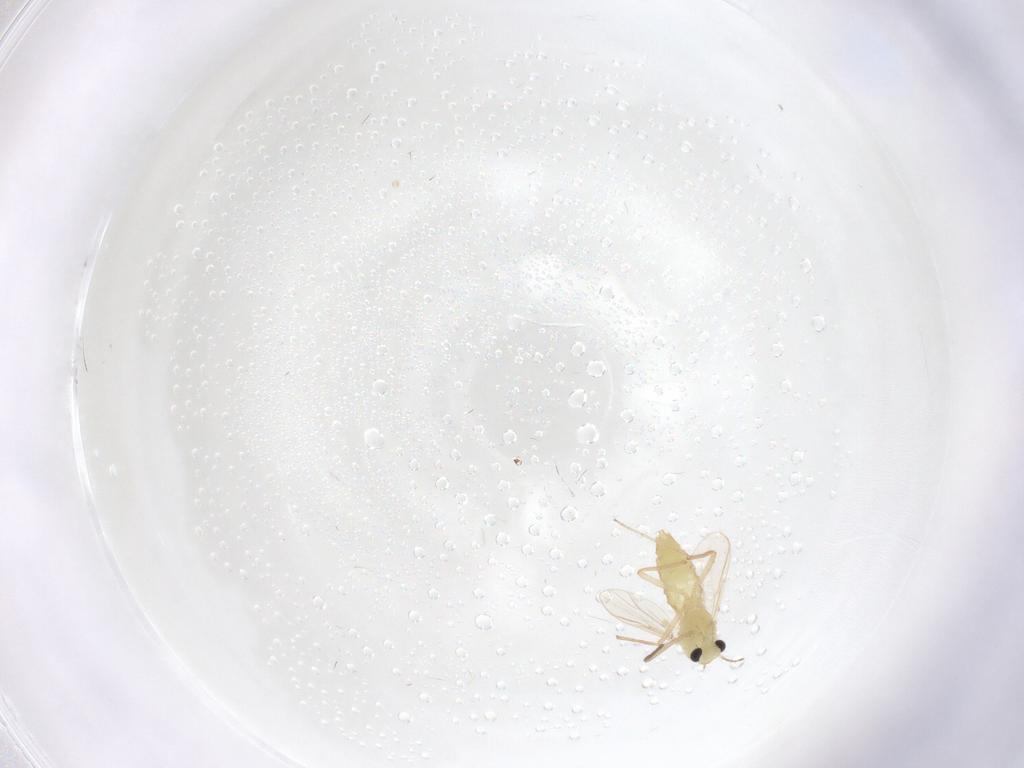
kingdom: Animalia
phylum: Arthropoda
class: Insecta
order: Diptera
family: Chironomidae
